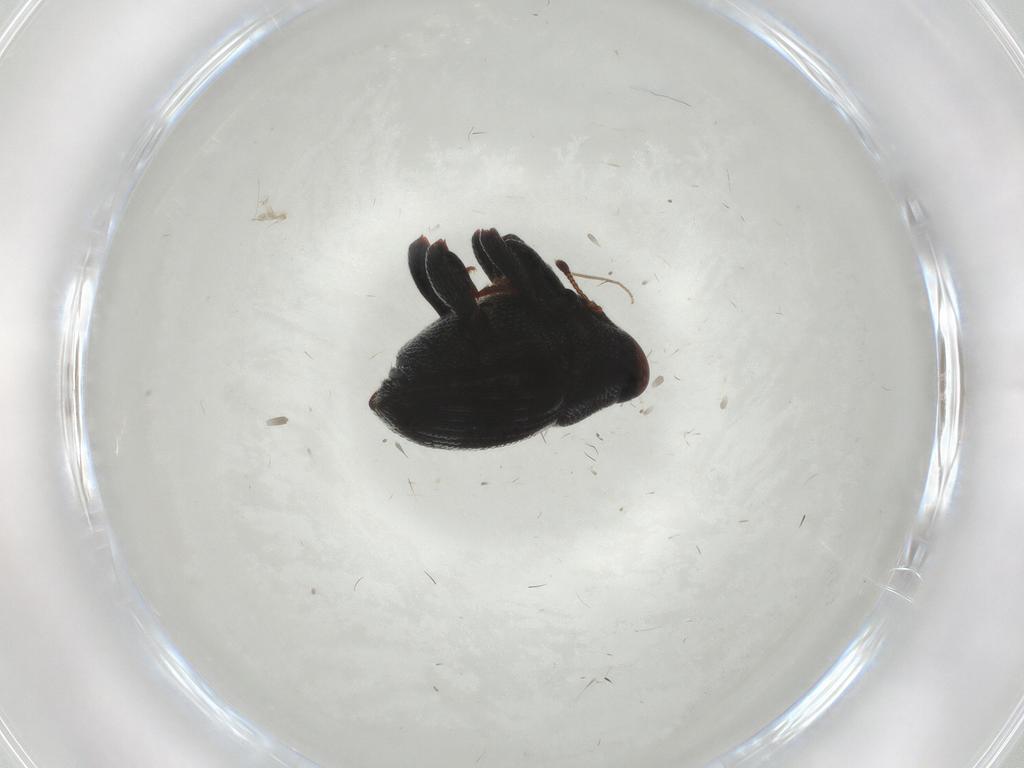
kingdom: Animalia
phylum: Arthropoda
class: Insecta
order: Coleoptera
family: Curculionidae
